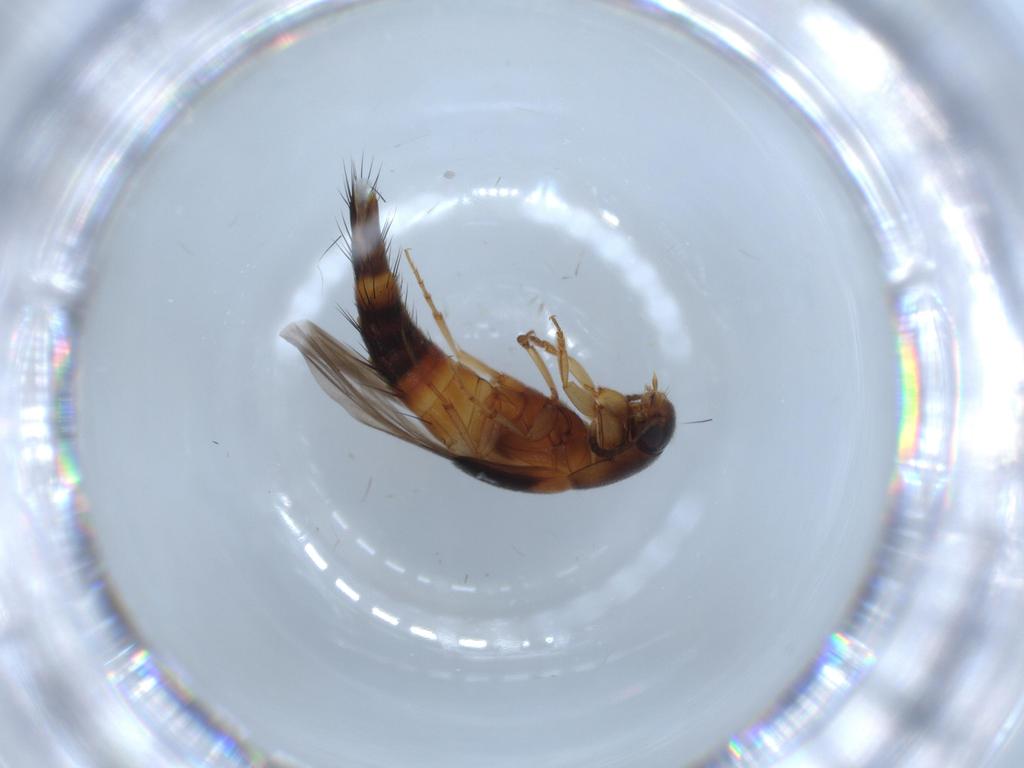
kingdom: Animalia
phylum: Arthropoda
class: Insecta
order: Coleoptera
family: Staphylinidae
